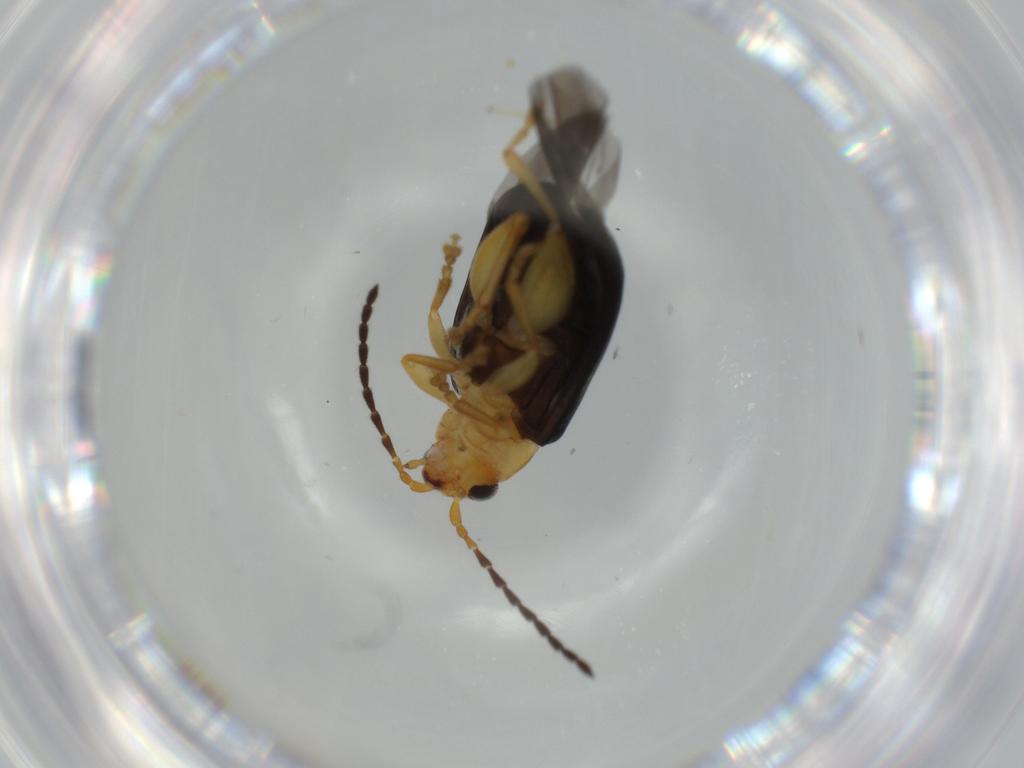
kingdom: Animalia
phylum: Arthropoda
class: Insecta
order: Coleoptera
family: Chrysomelidae
